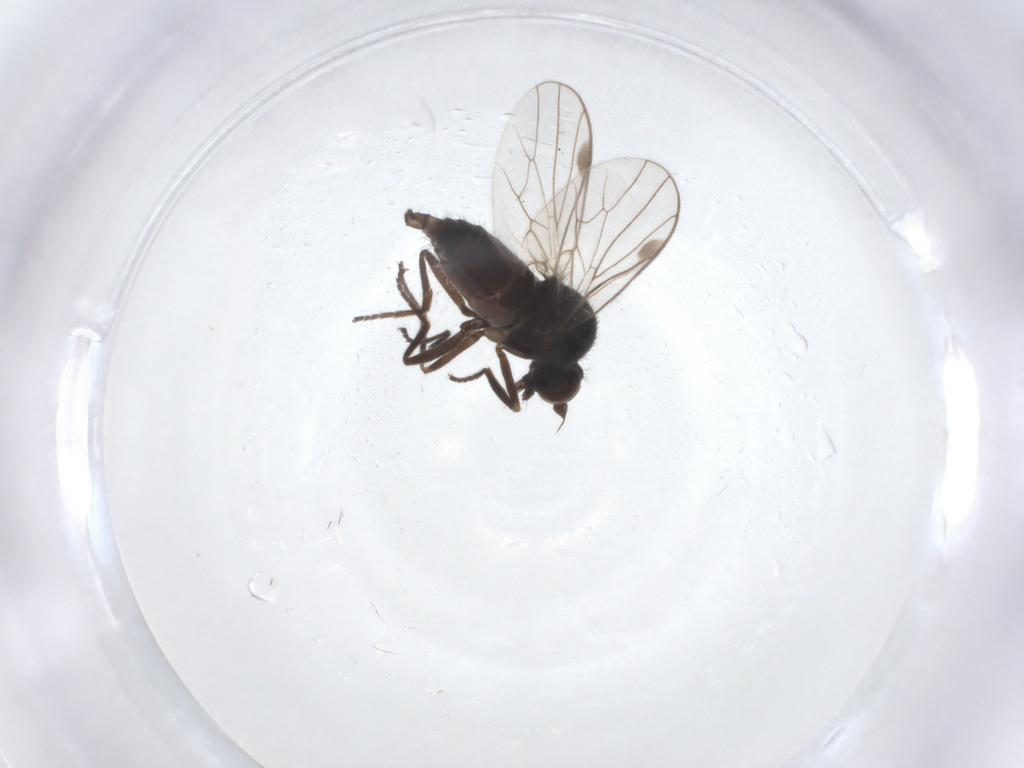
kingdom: Animalia
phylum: Arthropoda
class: Insecta
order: Diptera
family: Hybotidae
